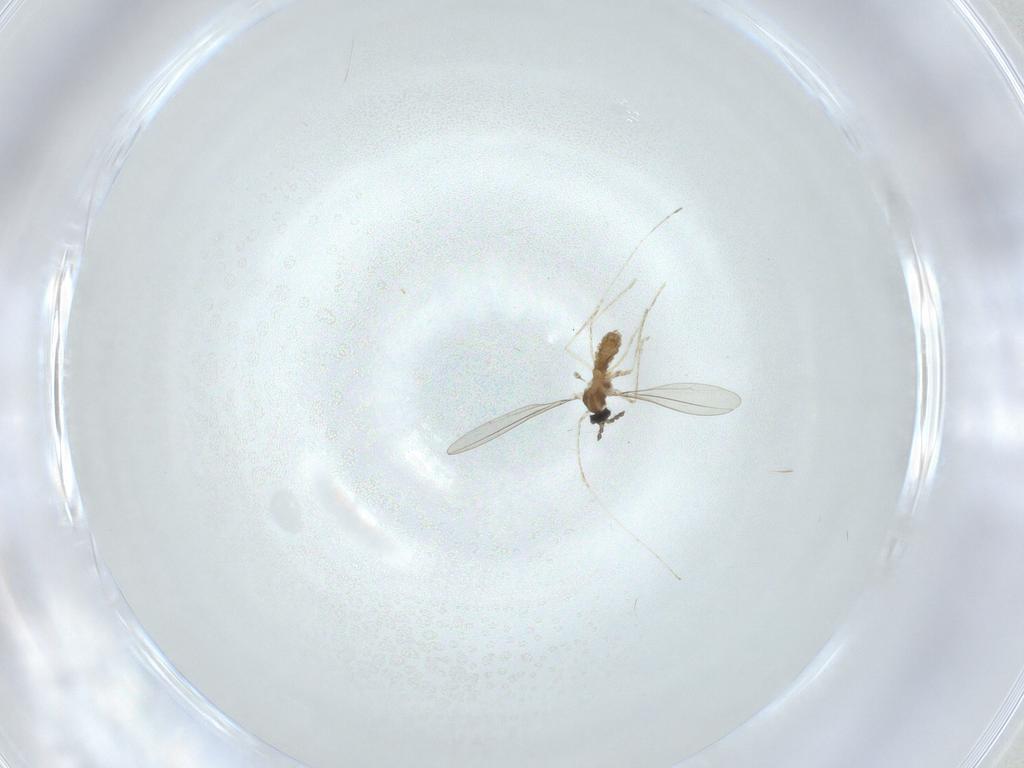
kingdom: Animalia
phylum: Arthropoda
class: Insecta
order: Diptera
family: Cecidomyiidae
